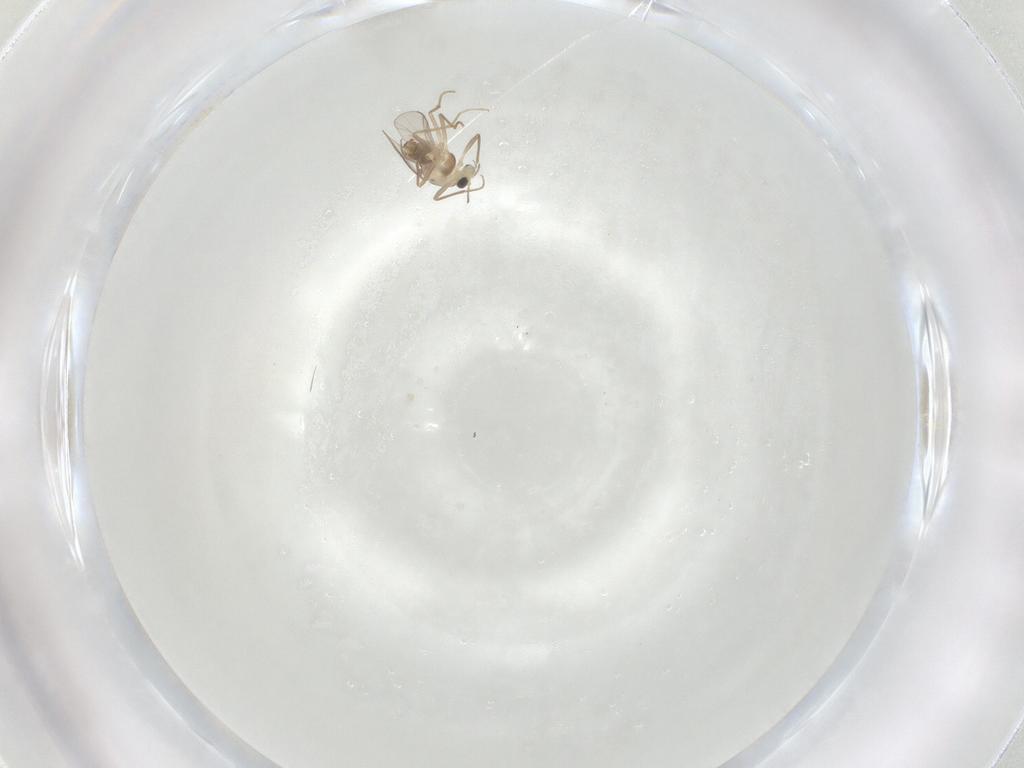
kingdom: Animalia
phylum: Arthropoda
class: Insecta
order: Diptera
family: Chironomidae
